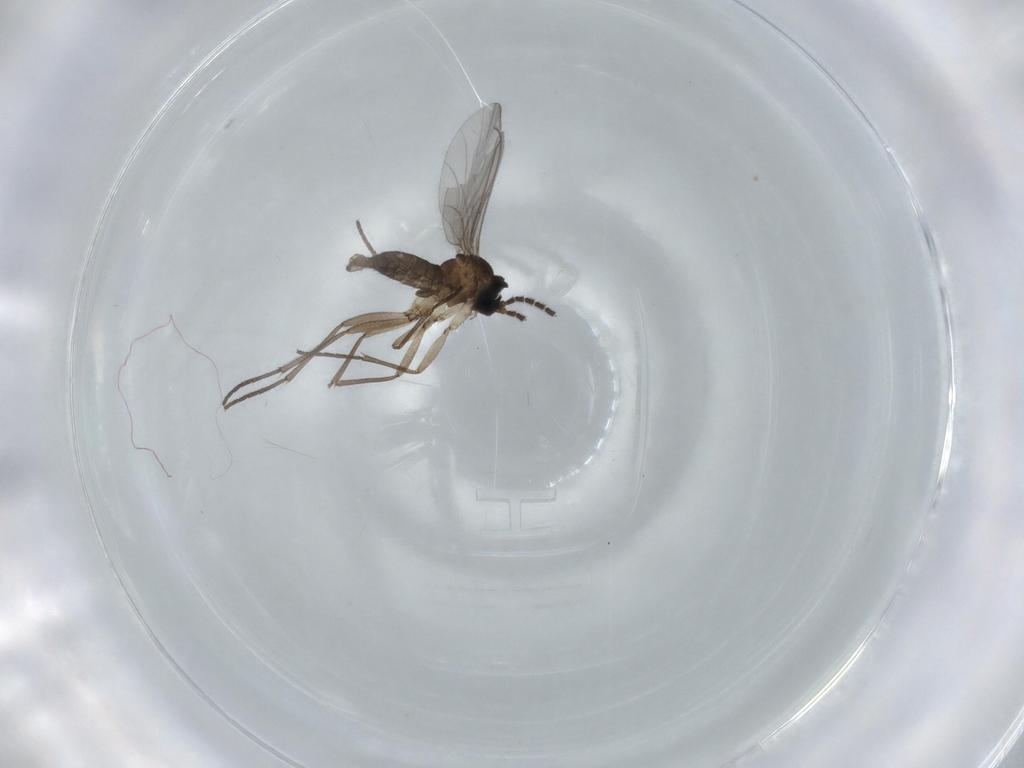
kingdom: Animalia
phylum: Arthropoda
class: Insecta
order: Diptera
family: Sciaridae
